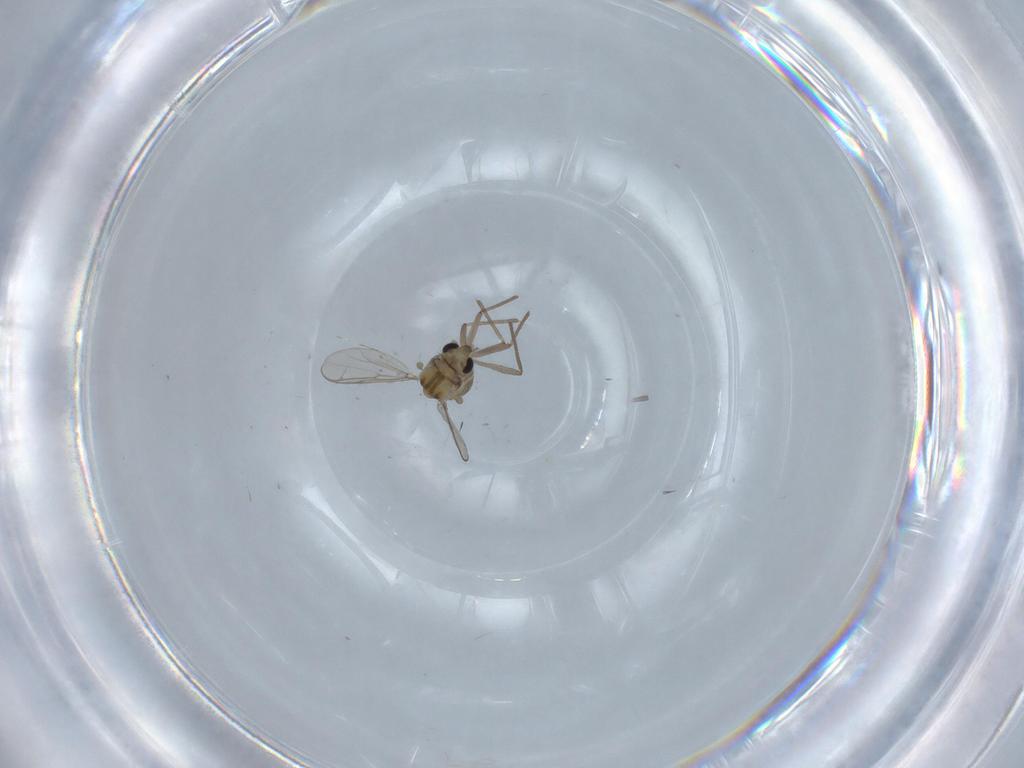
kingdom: Animalia
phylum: Arthropoda
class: Insecta
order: Diptera
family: Chironomidae
